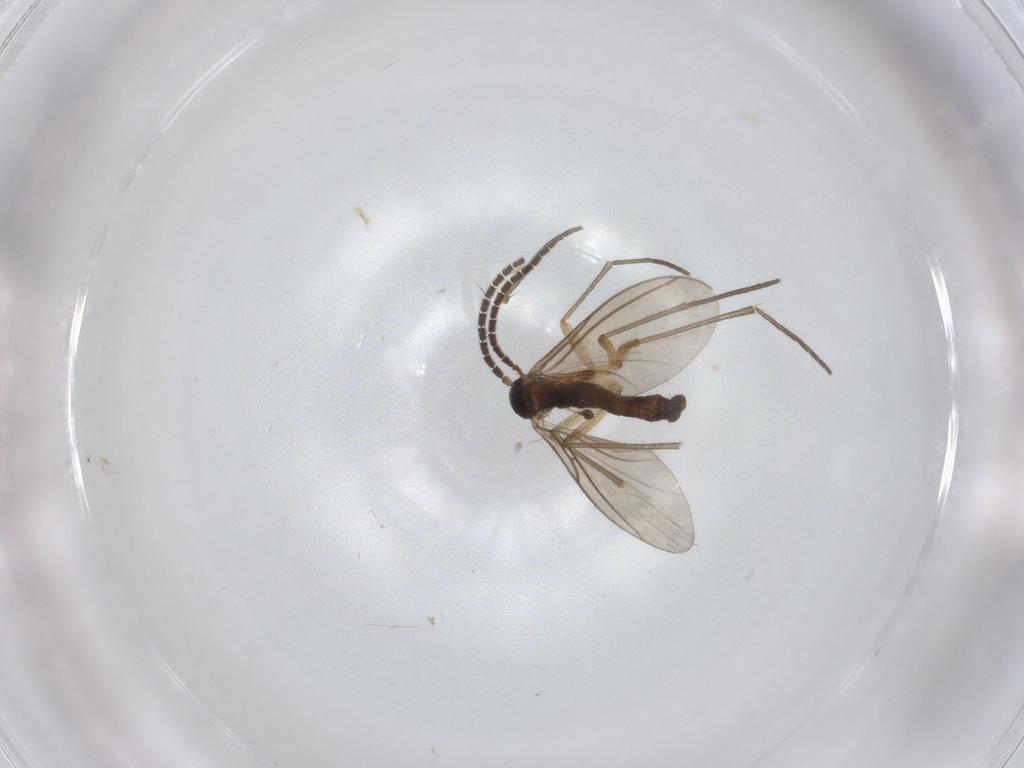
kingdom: Animalia
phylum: Arthropoda
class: Insecta
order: Diptera
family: Sciaridae
